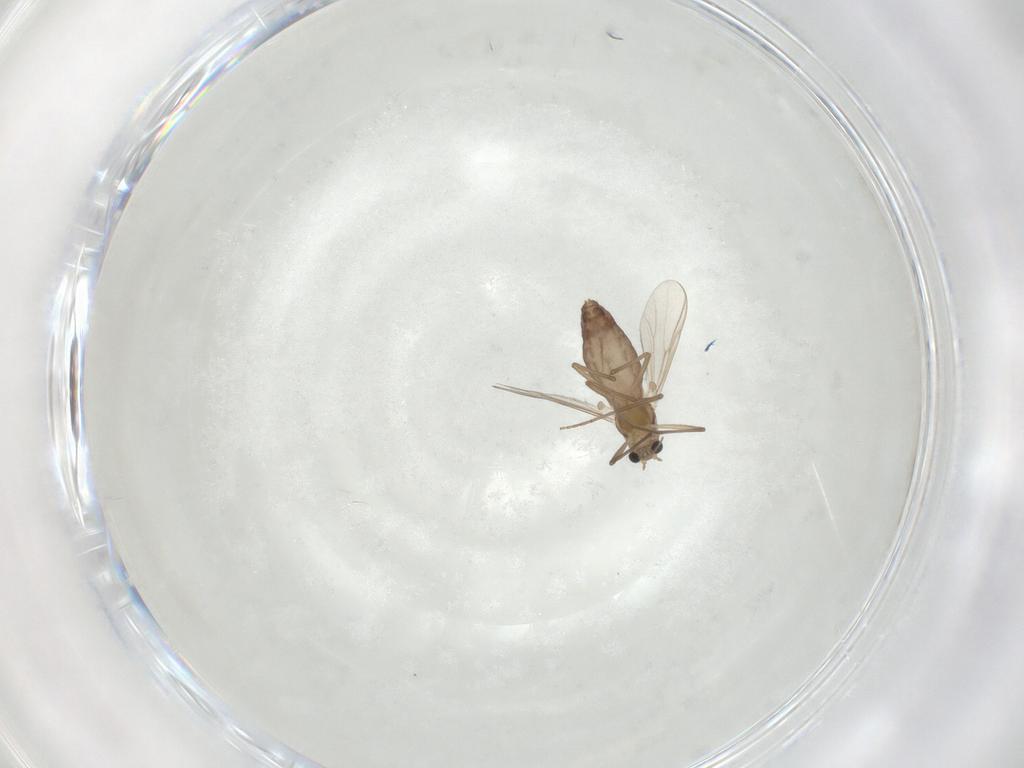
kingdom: Animalia
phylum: Arthropoda
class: Insecta
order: Diptera
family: Chironomidae
